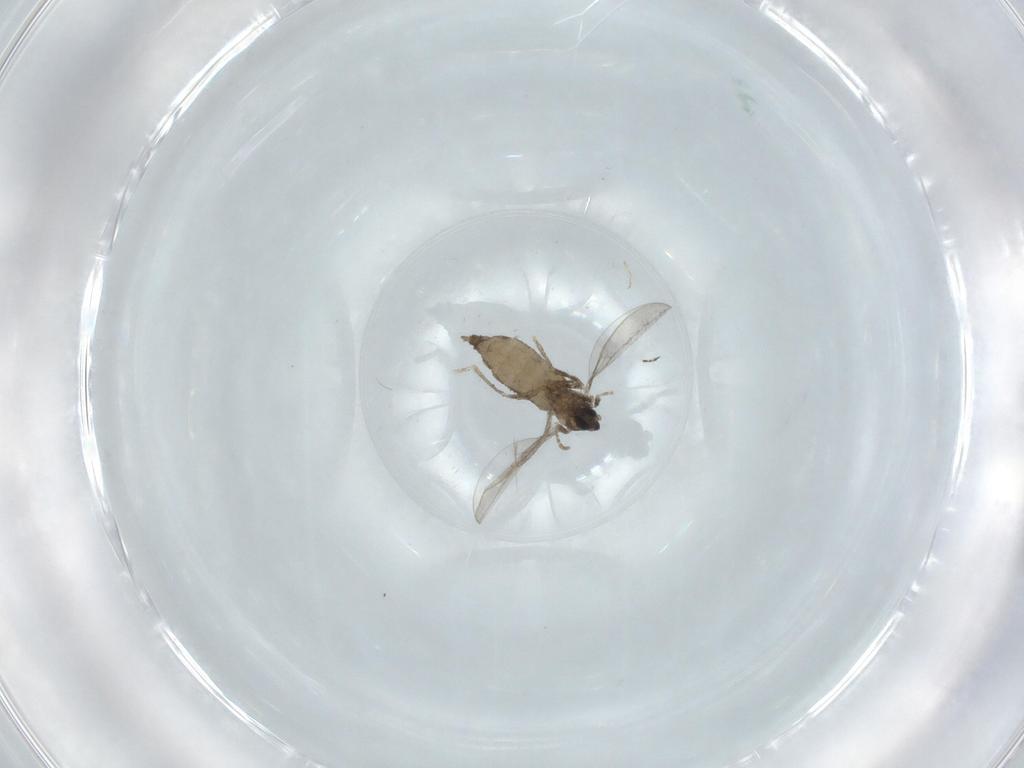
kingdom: Animalia
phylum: Arthropoda
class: Insecta
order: Diptera
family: Cecidomyiidae
